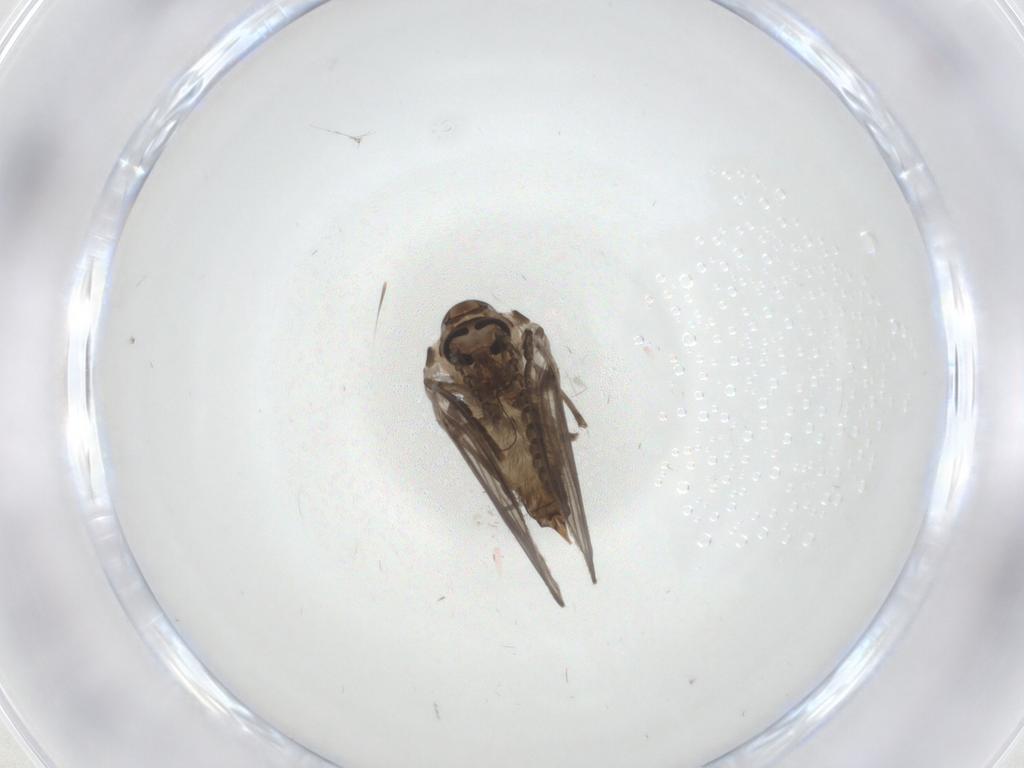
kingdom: Animalia
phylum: Arthropoda
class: Insecta
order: Diptera
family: Psychodidae
